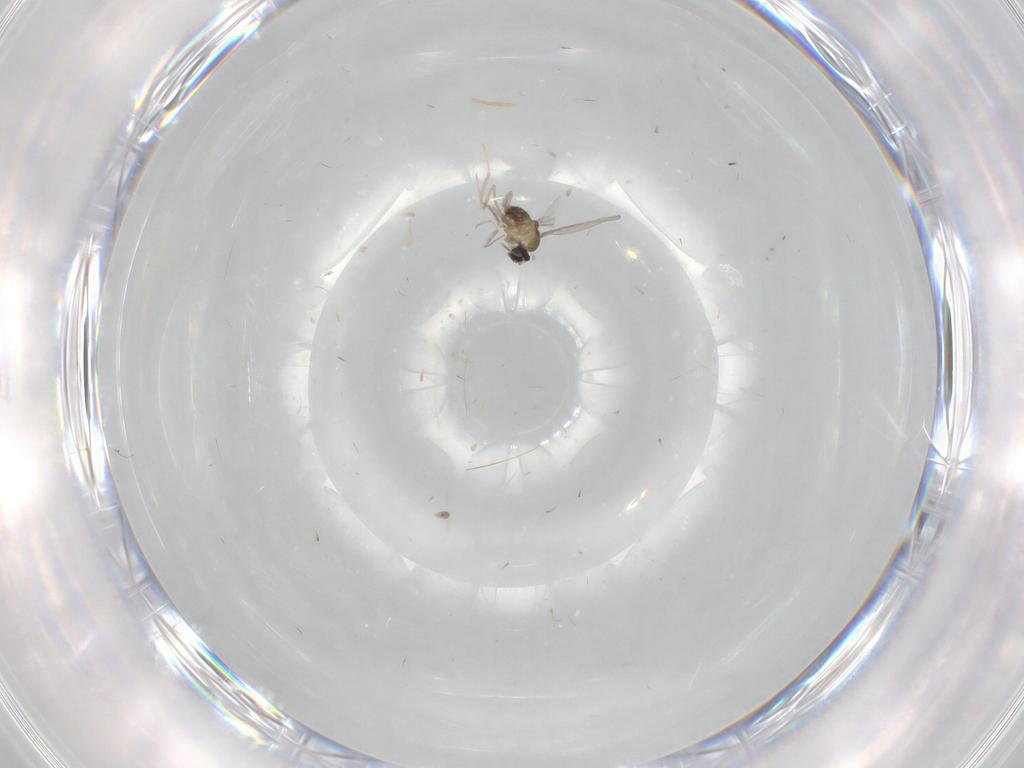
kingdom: Animalia
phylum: Arthropoda
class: Insecta
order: Diptera
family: Cecidomyiidae
